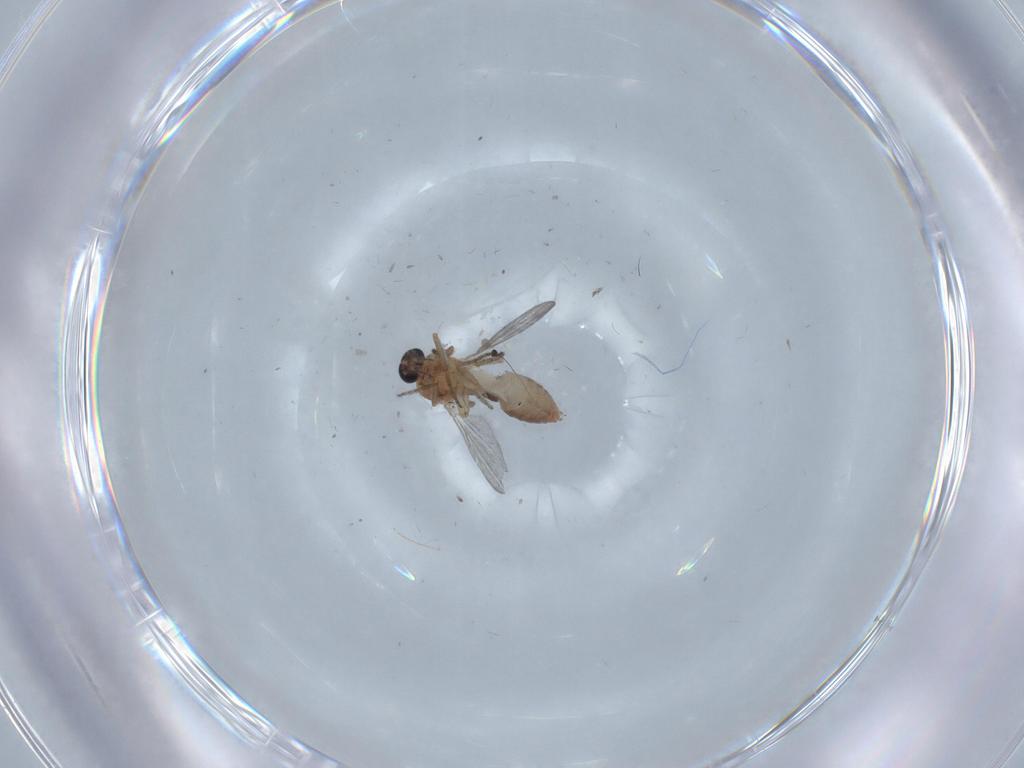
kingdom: Animalia
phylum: Arthropoda
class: Insecta
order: Diptera
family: Ceratopogonidae
